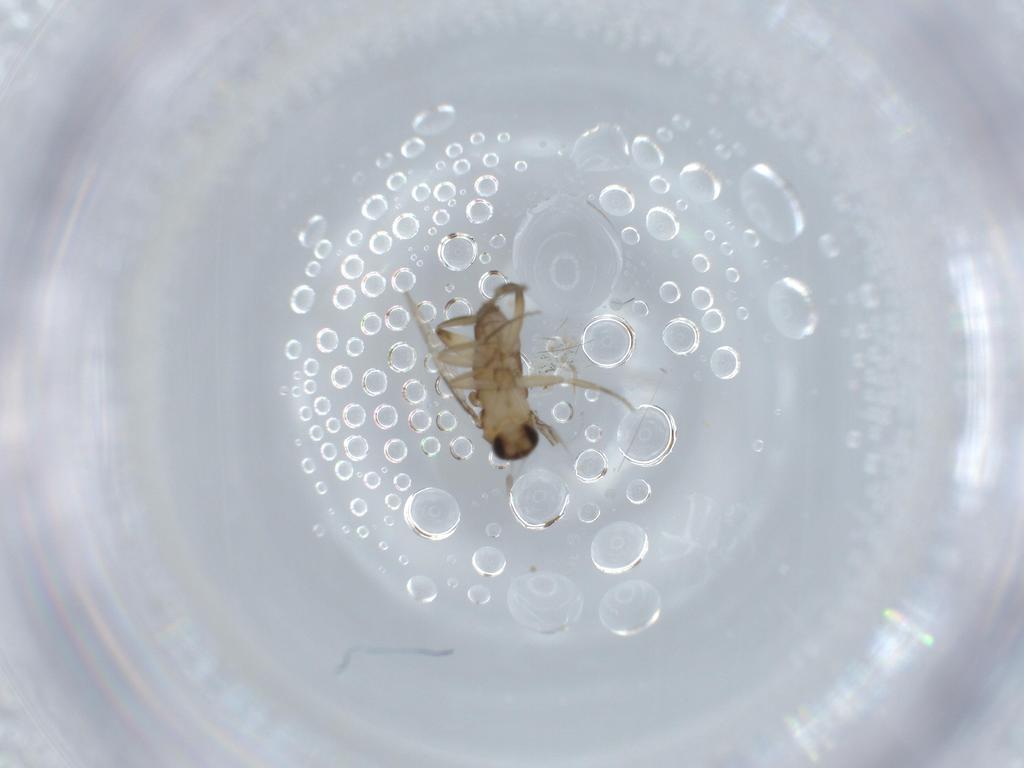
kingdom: Animalia
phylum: Arthropoda
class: Insecta
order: Diptera
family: Phoridae
